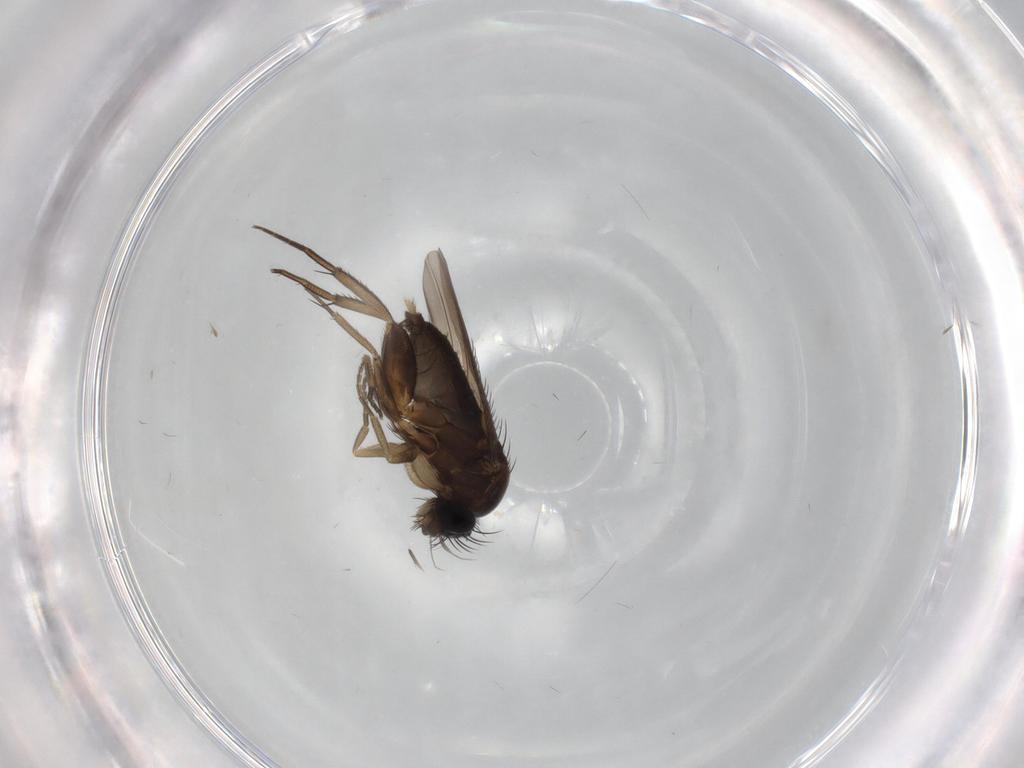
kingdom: Animalia
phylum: Arthropoda
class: Insecta
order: Diptera
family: Phoridae
